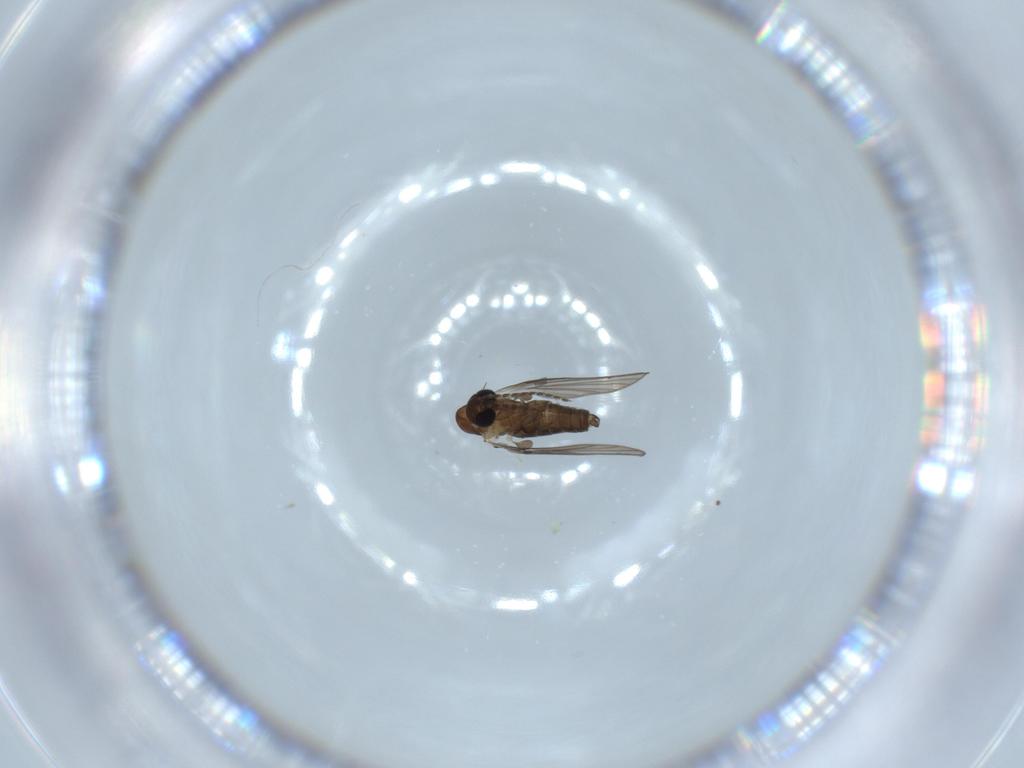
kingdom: Animalia
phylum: Arthropoda
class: Insecta
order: Diptera
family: Psychodidae
